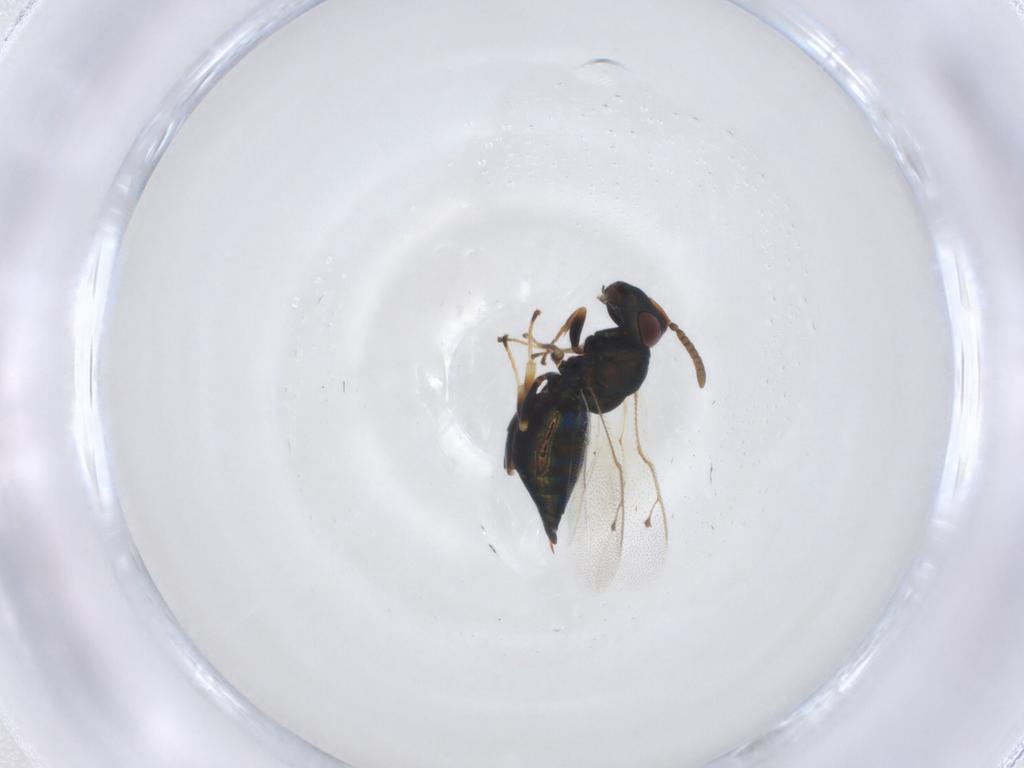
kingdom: Animalia
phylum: Arthropoda
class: Insecta
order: Hymenoptera
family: Pteromalidae
